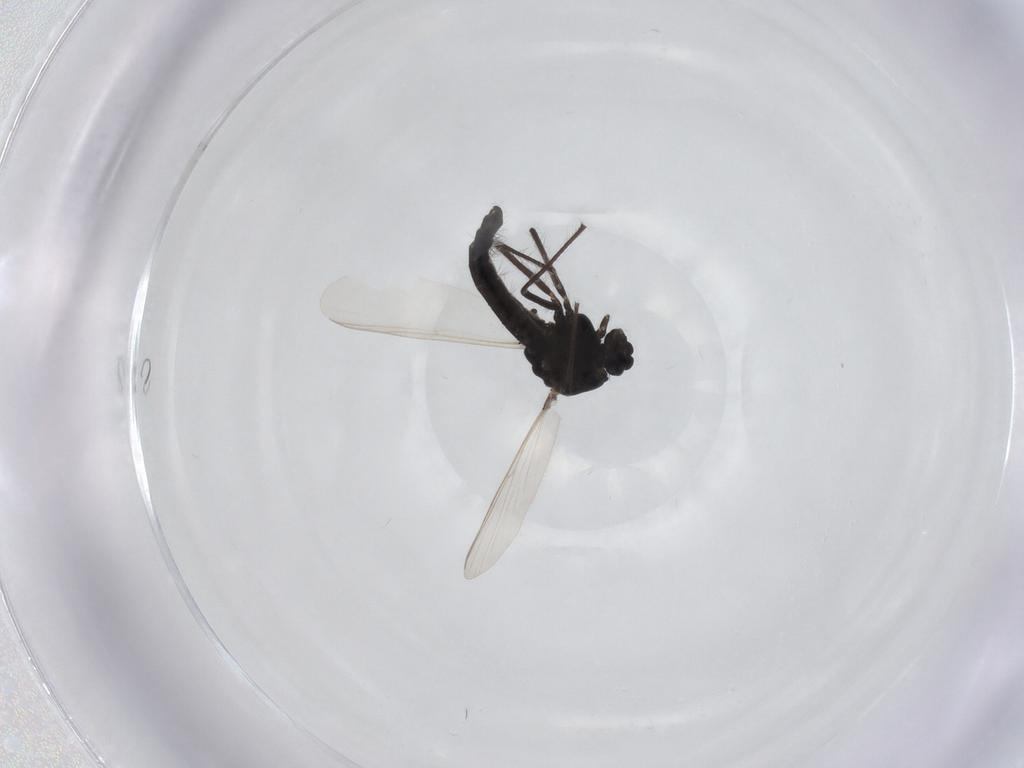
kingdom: Animalia
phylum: Arthropoda
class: Insecta
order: Diptera
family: Chironomidae
